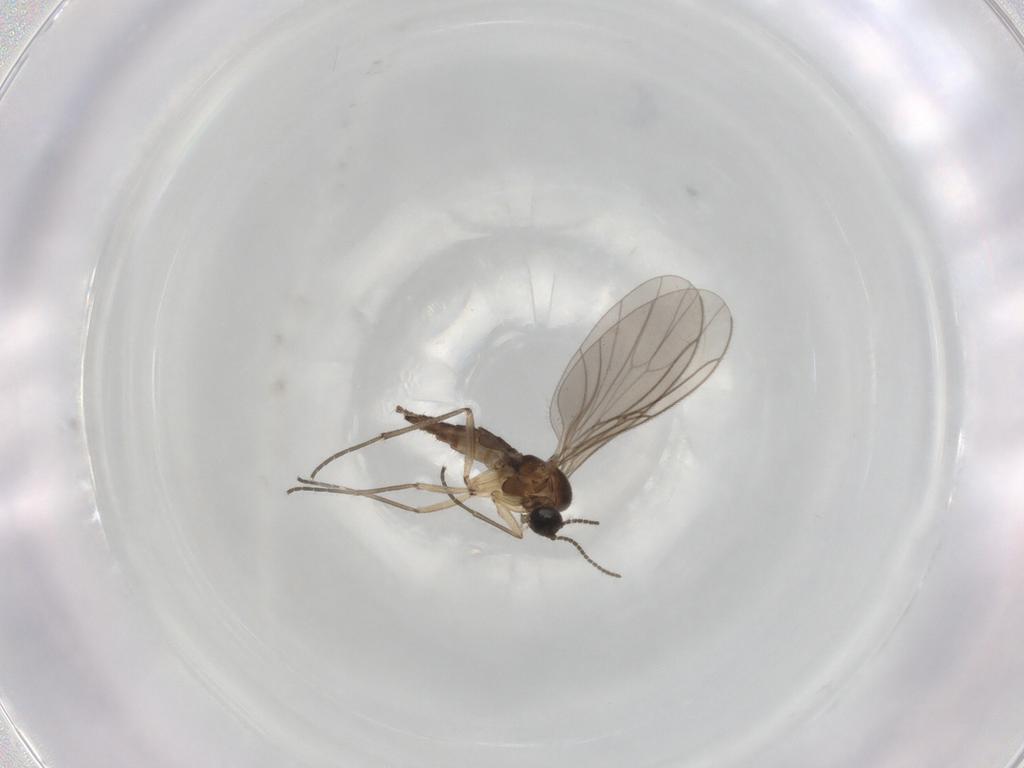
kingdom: Animalia
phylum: Arthropoda
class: Insecta
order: Diptera
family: Sciaridae
